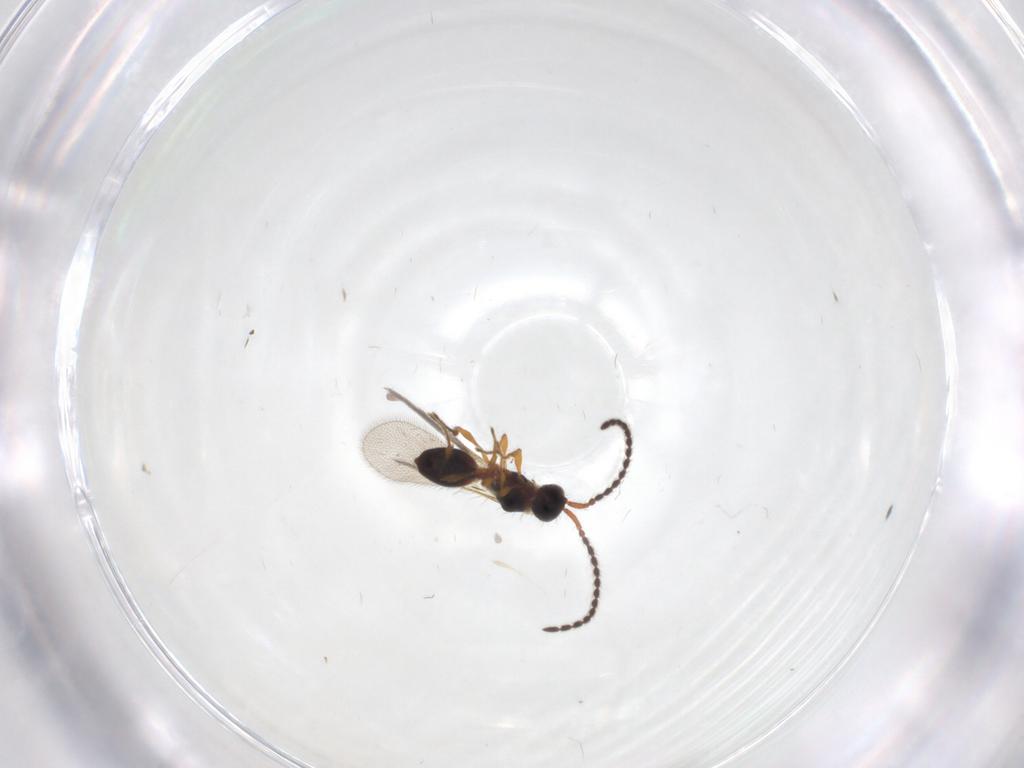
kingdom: Animalia
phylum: Arthropoda
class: Insecta
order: Hymenoptera
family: Diapriidae
